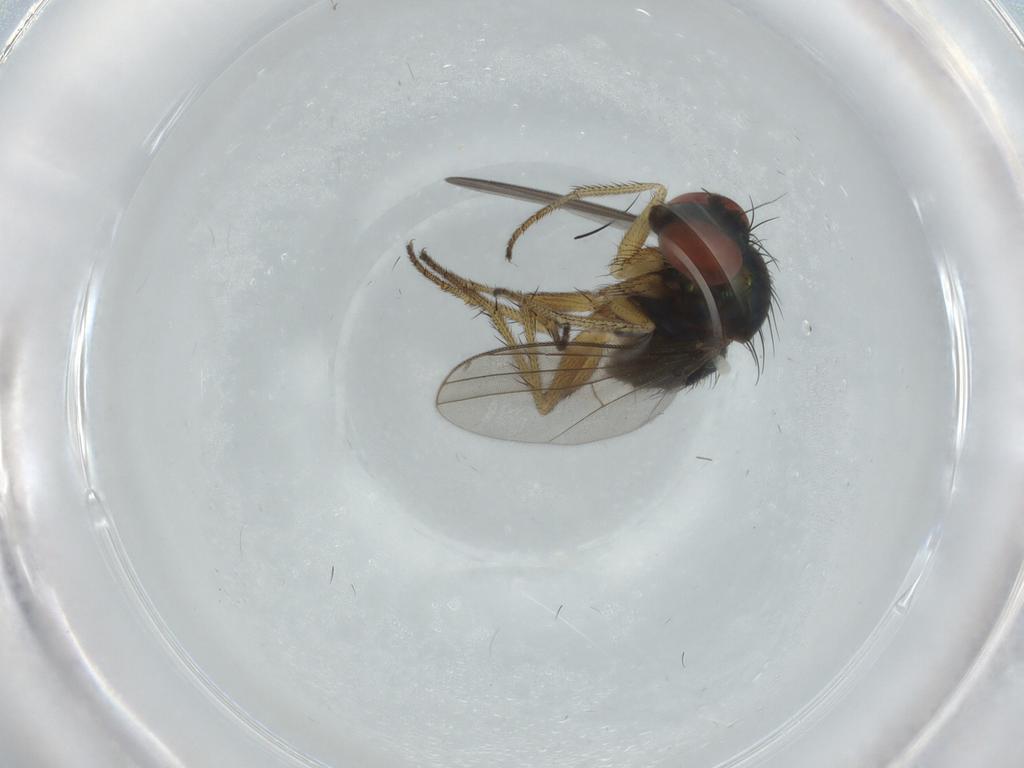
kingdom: Animalia
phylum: Arthropoda
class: Insecta
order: Diptera
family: Dolichopodidae
